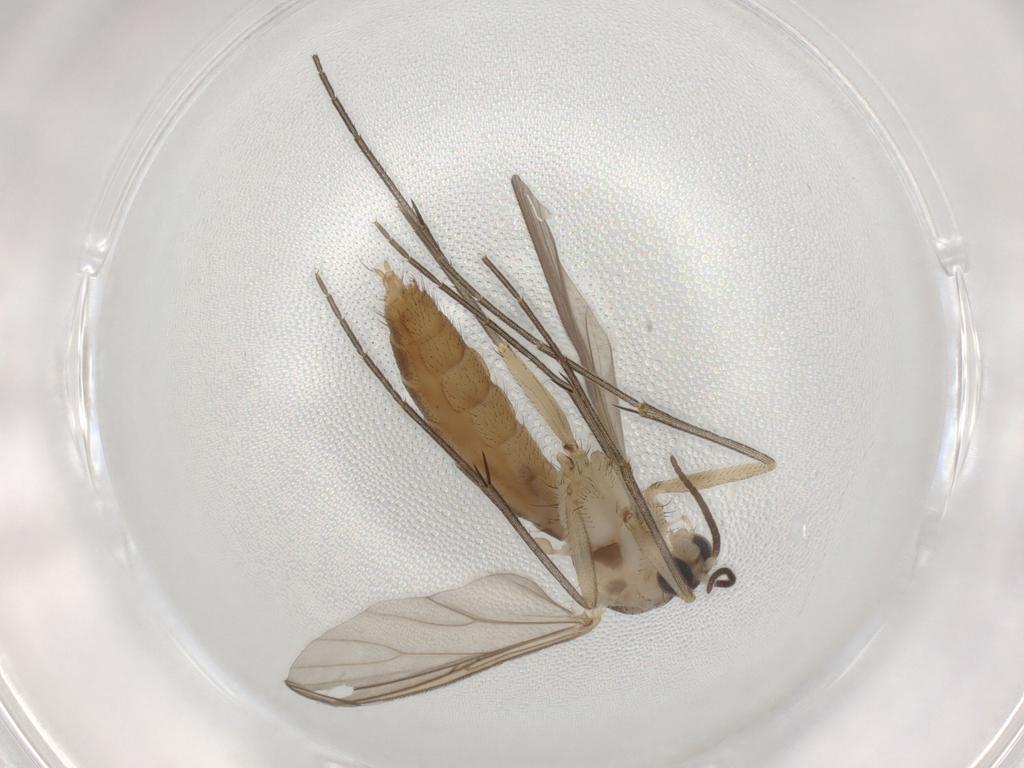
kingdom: Animalia
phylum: Arthropoda
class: Insecta
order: Diptera
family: Mycetophilidae
